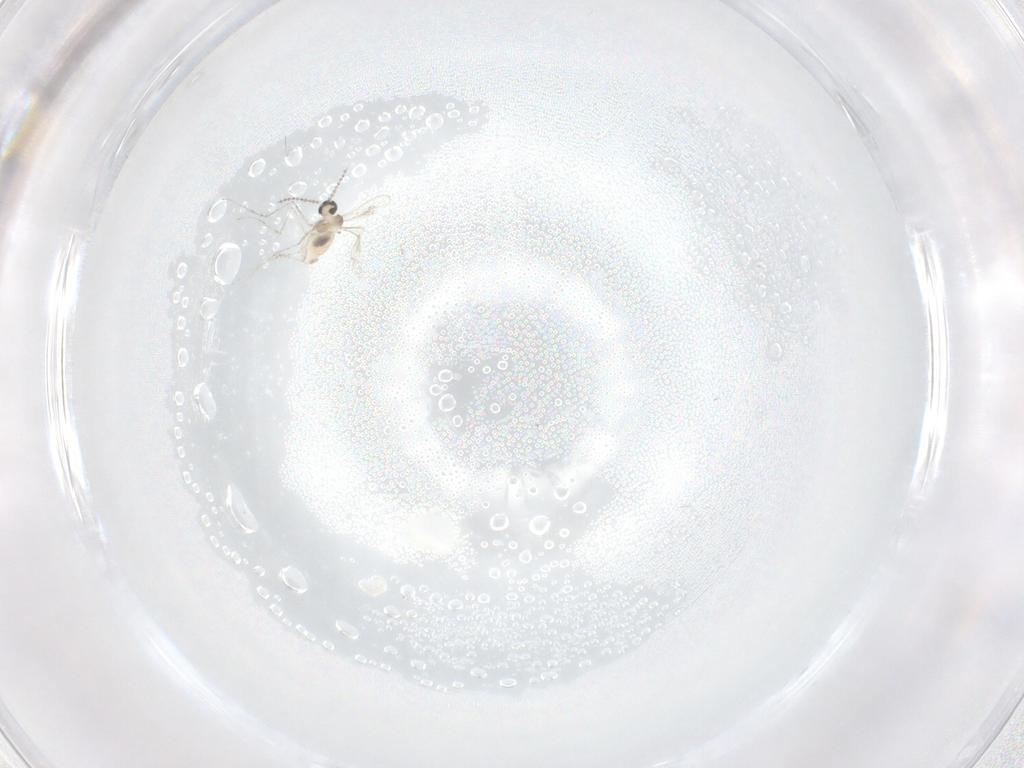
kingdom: Animalia
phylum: Arthropoda
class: Insecta
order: Diptera
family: Cecidomyiidae
